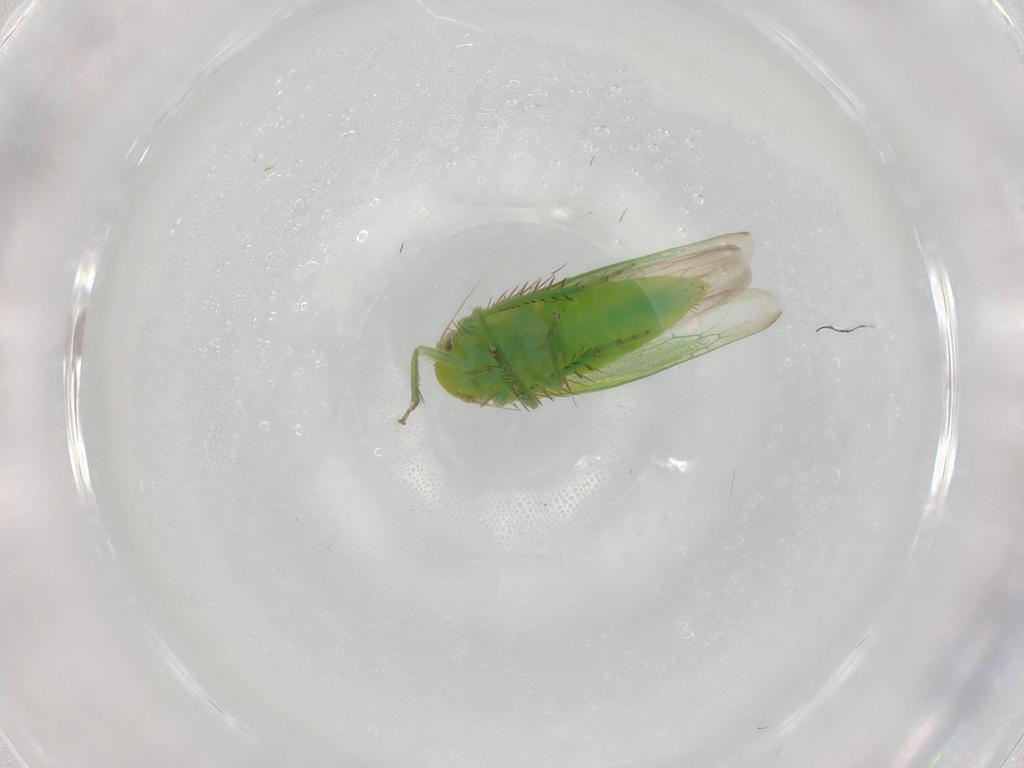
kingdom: Animalia
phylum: Arthropoda
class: Insecta
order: Hemiptera
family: Cicadellidae
